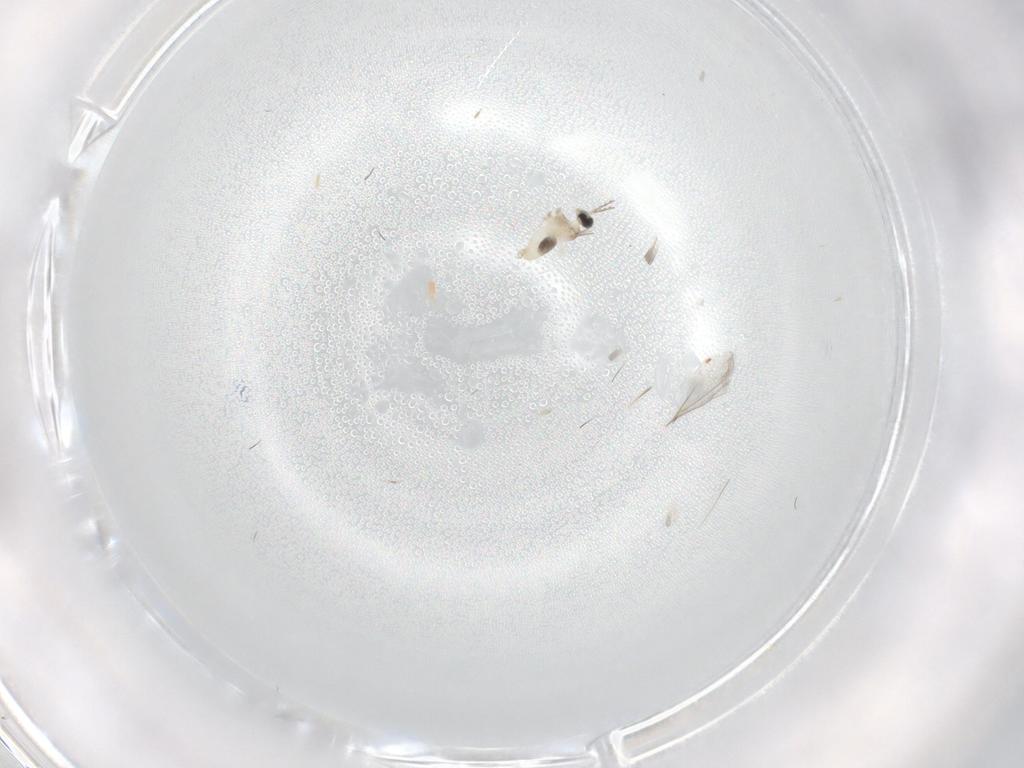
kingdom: Animalia
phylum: Arthropoda
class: Insecta
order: Diptera
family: Cecidomyiidae
